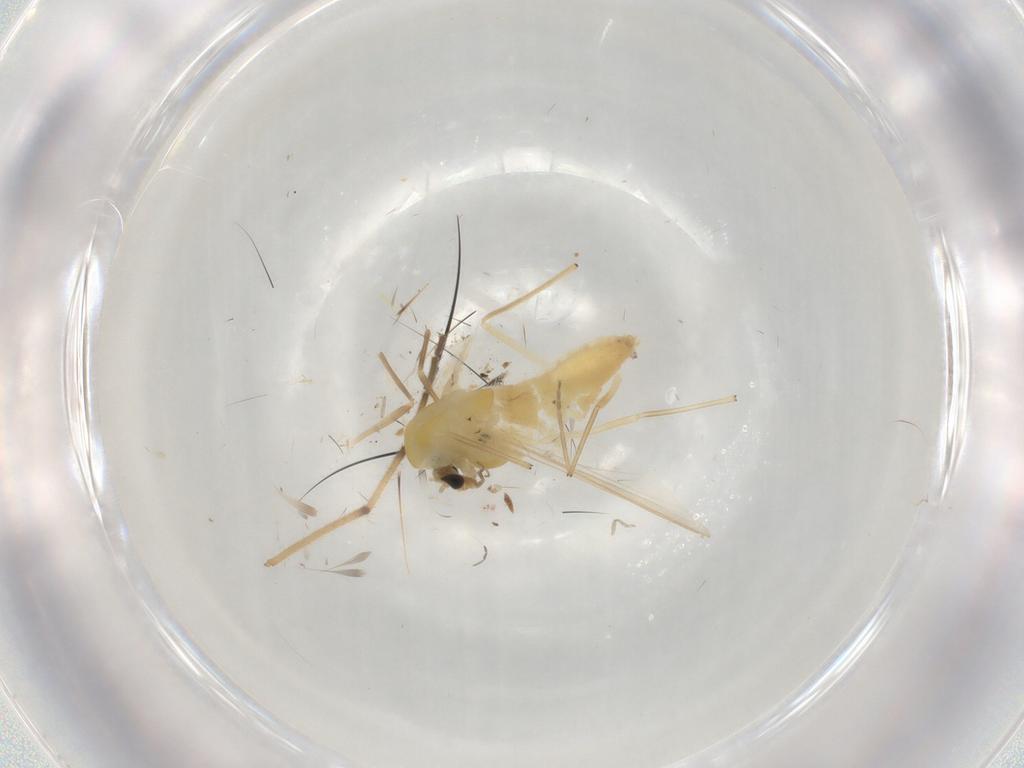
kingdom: Animalia
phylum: Arthropoda
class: Insecta
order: Diptera
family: Chironomidae
